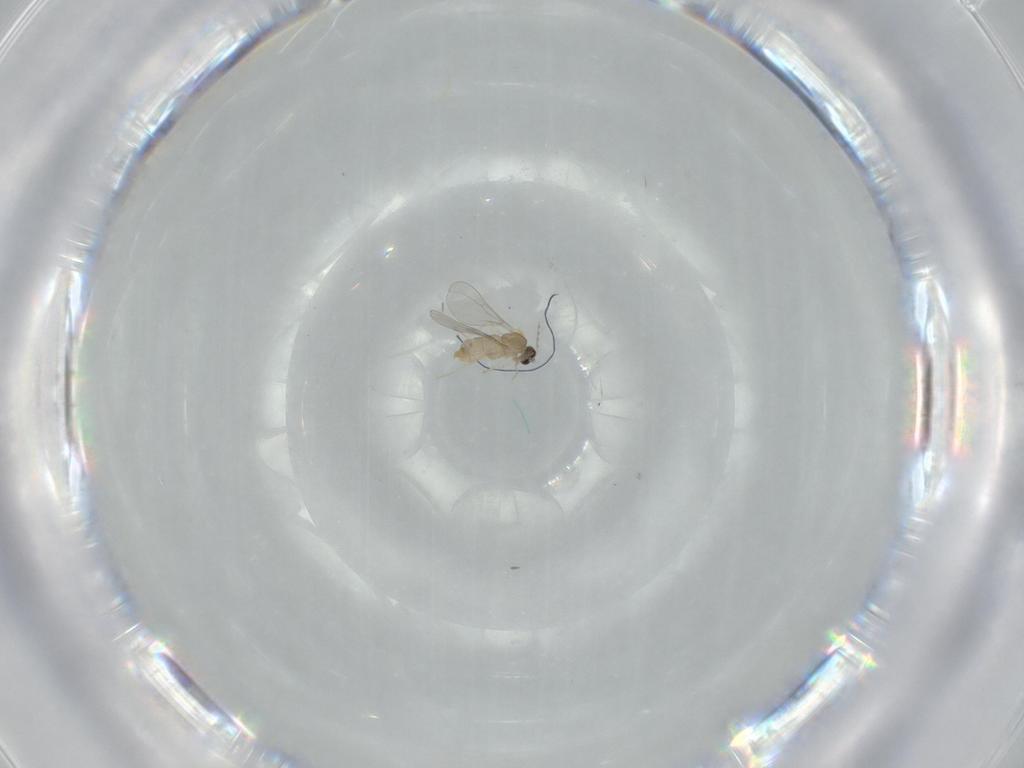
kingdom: Animalia
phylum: Arthropoda
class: Insecta
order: Diptera
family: Cecidomyiidae
